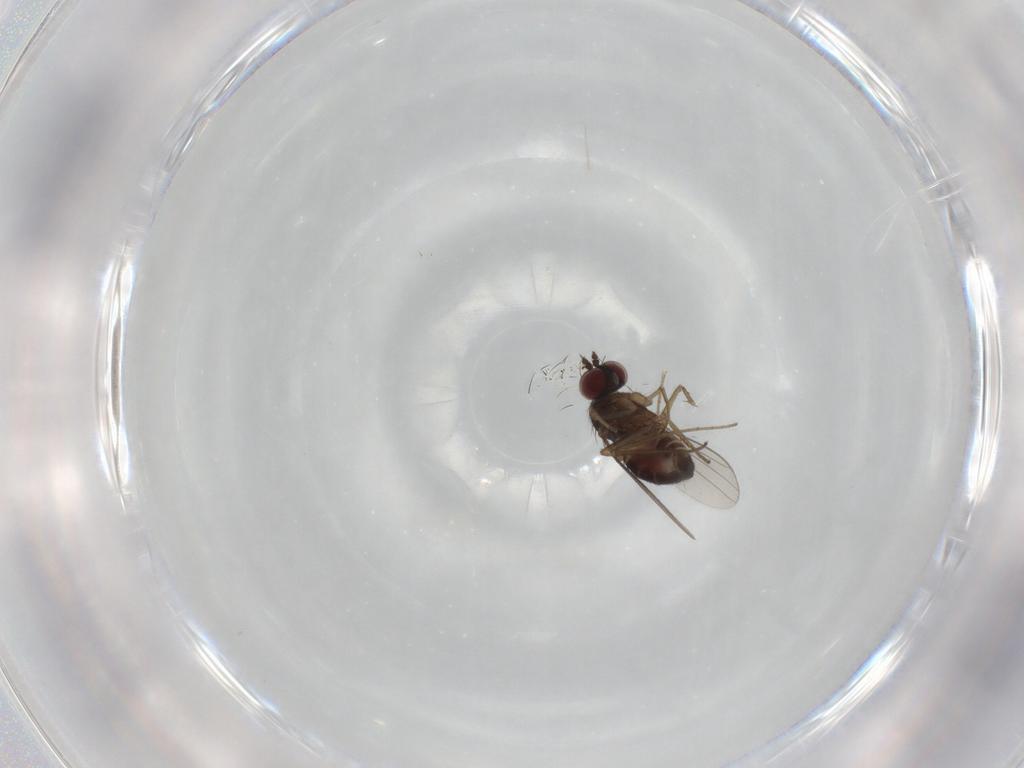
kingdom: Animalia
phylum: Arthropoda
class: Insecta
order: Diptera
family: Dolichopodidae
